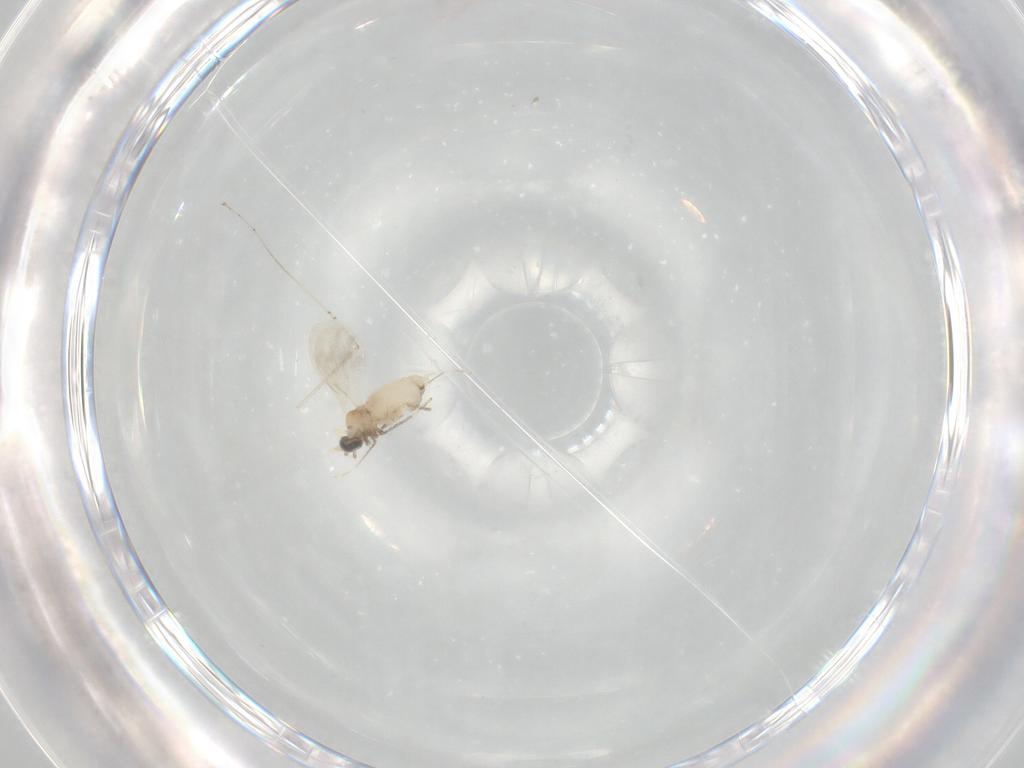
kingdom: Animalia
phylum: Arthropoda
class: Insecta
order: Diptera
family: Cecidomyiidae
